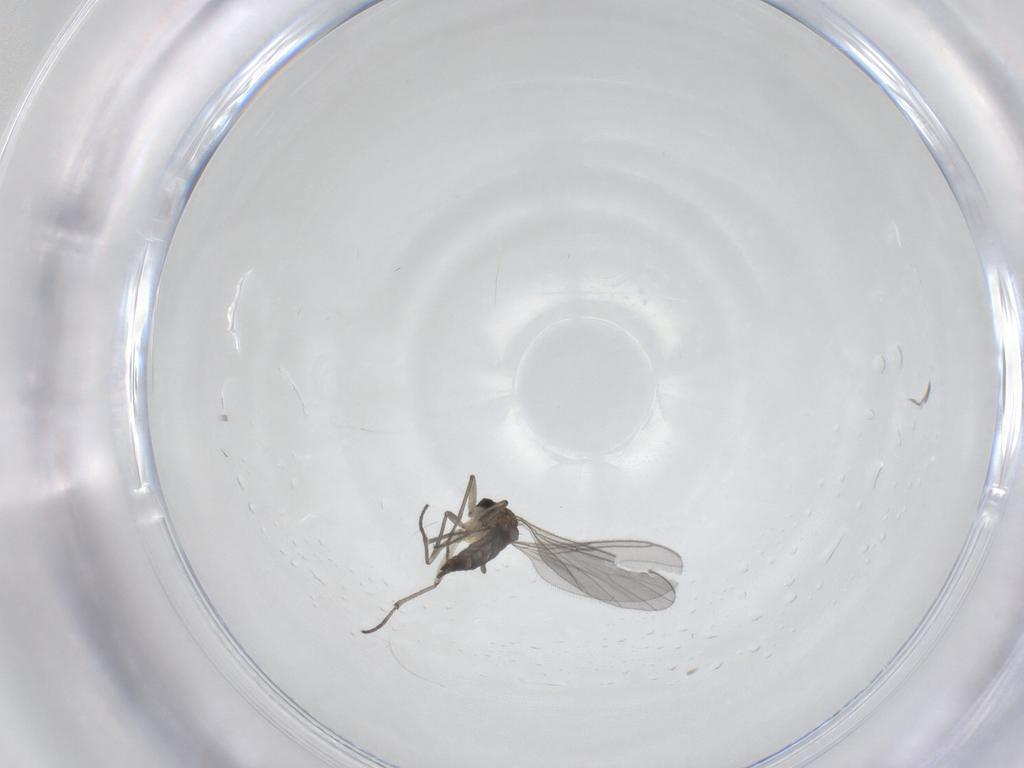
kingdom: Animalia
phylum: Arthropoda
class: Insecta
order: Diptera
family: Sciaridae
